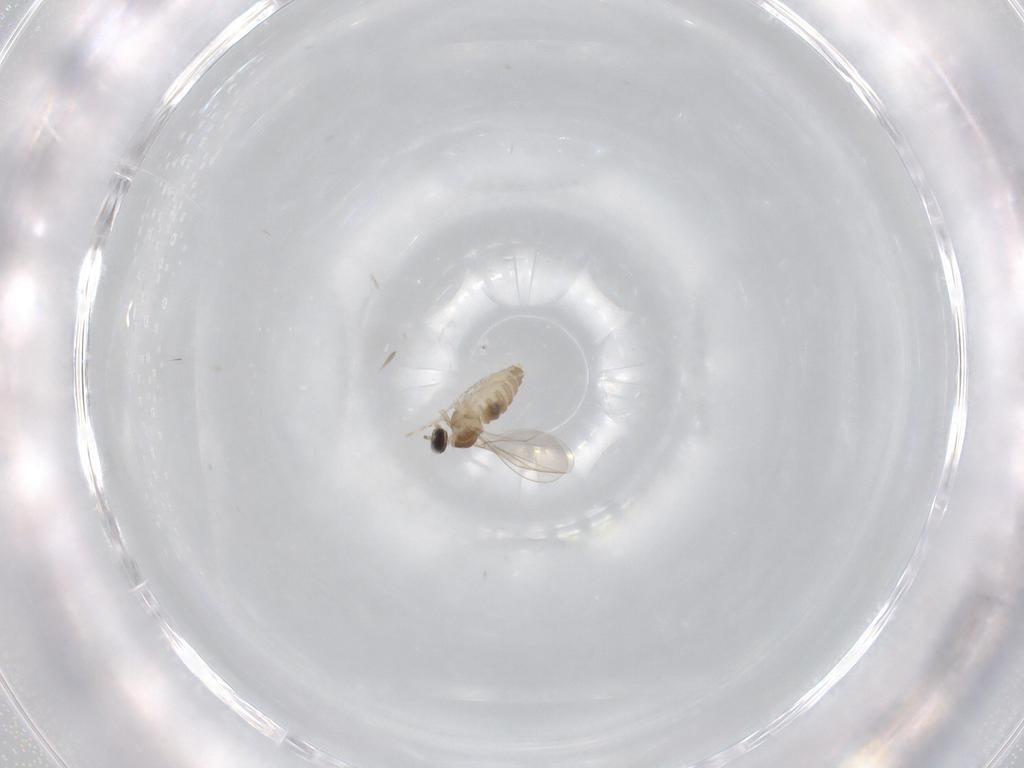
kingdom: Animalia
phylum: Arthropoda
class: Insecta
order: Diptera
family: Cecidomyiidae
